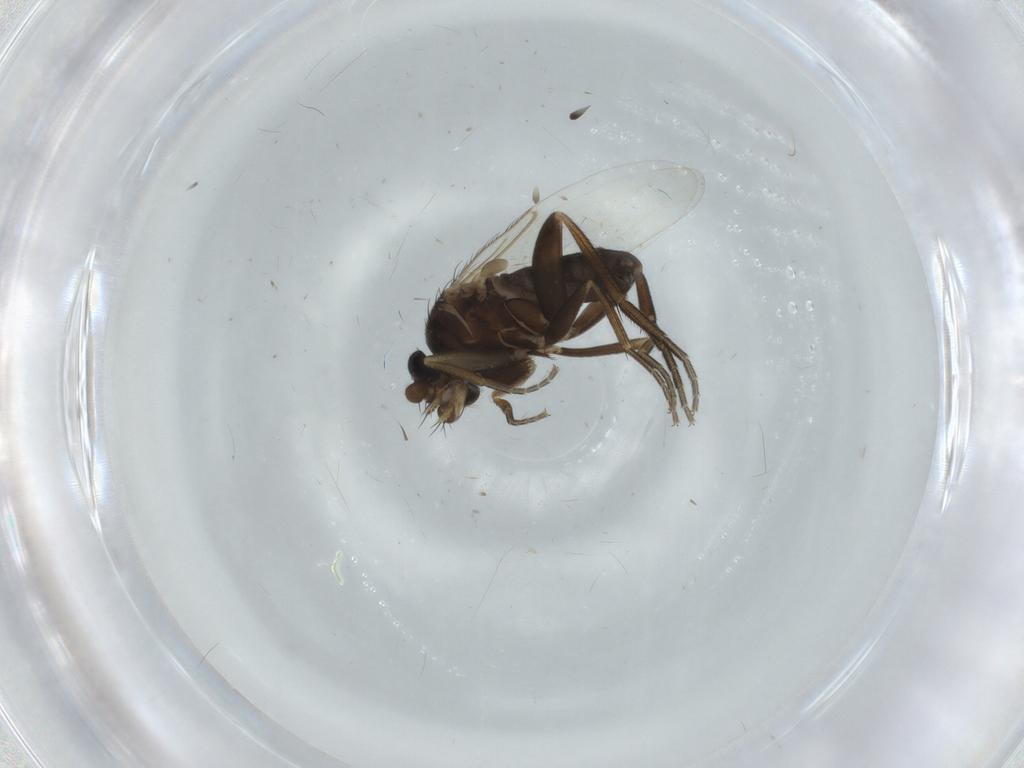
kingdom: Animalia
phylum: Arthropoda
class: Insecta
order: Diptera
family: Phoridae
